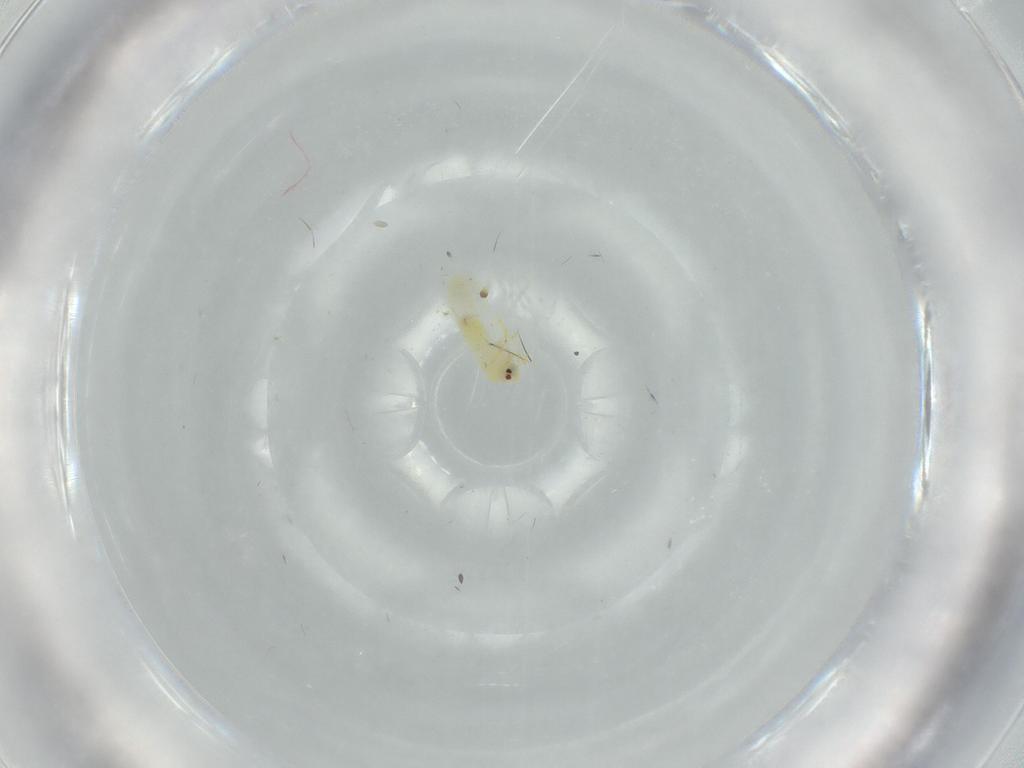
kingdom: Animalia
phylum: Arthropoda
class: Insecta
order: Hemiptera
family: Aleyrodidae
